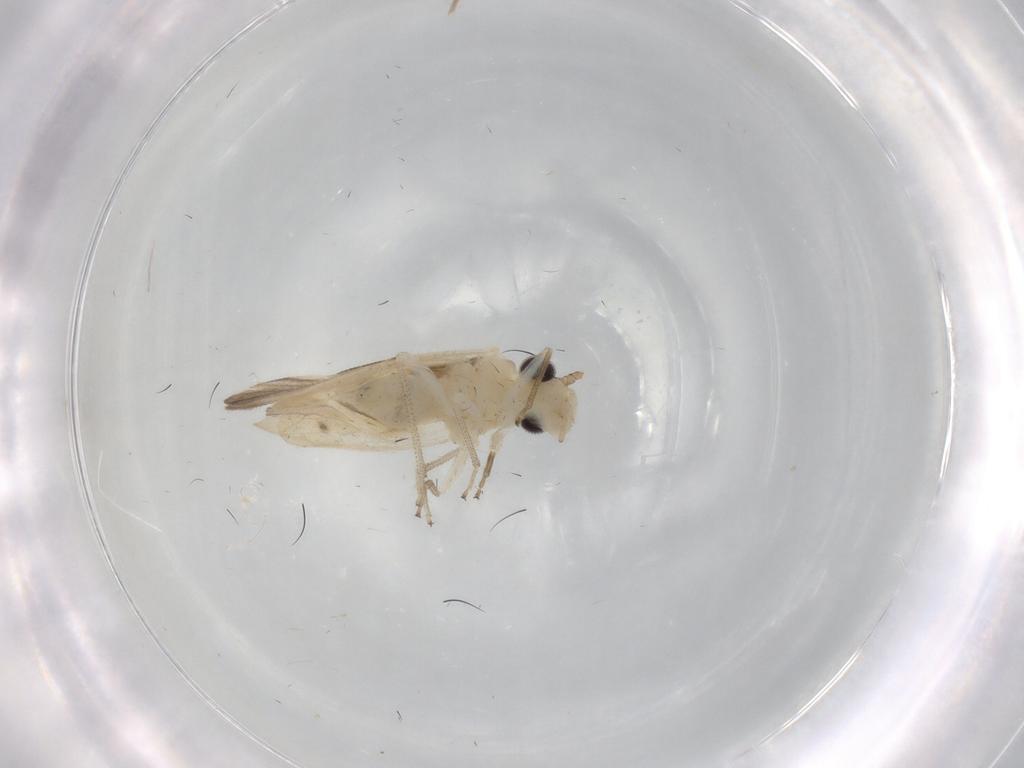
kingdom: Animalia
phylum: Arthropoda
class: Insecta
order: Psocodea
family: Caeciliusidae
